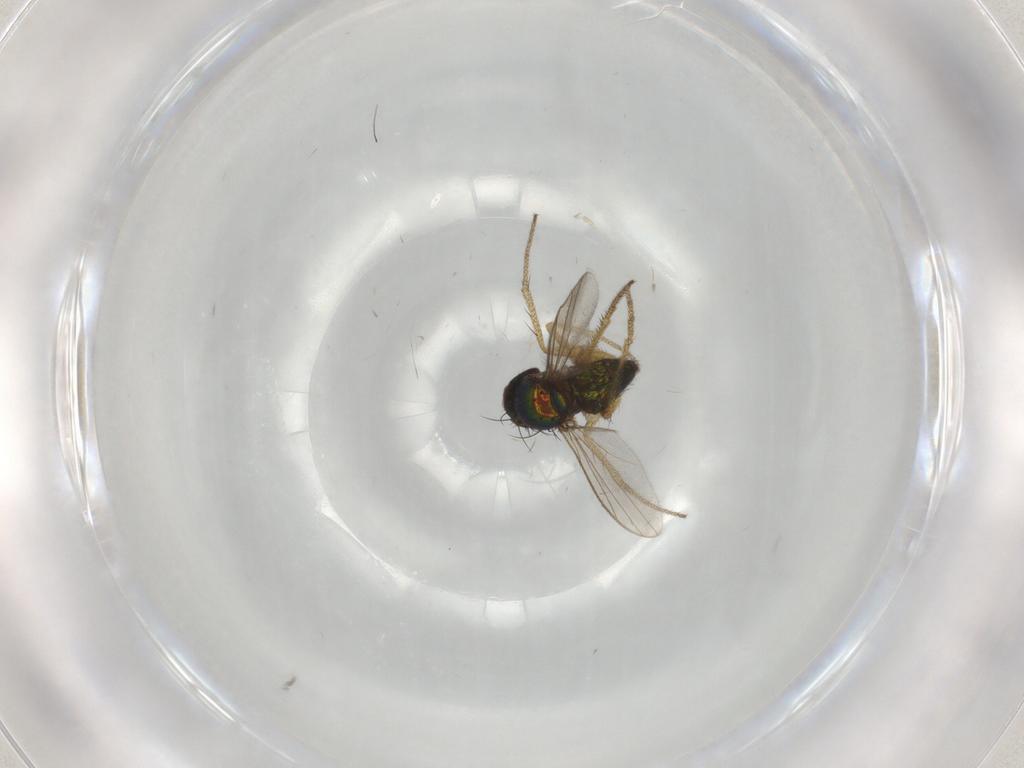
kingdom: Animalia
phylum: Arthropoda
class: Insecta
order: Diptera
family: Dolichopodidae
